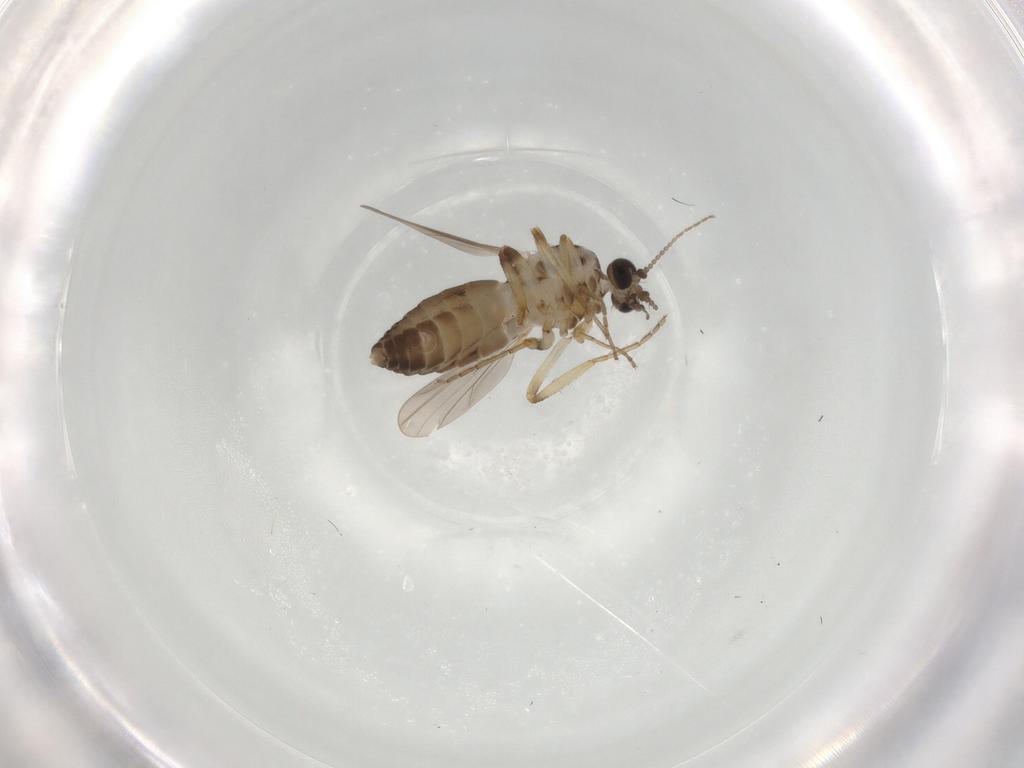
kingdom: Animalia
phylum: Arthropoda
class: Insecta
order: Diptera
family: Ceratopogonidae
